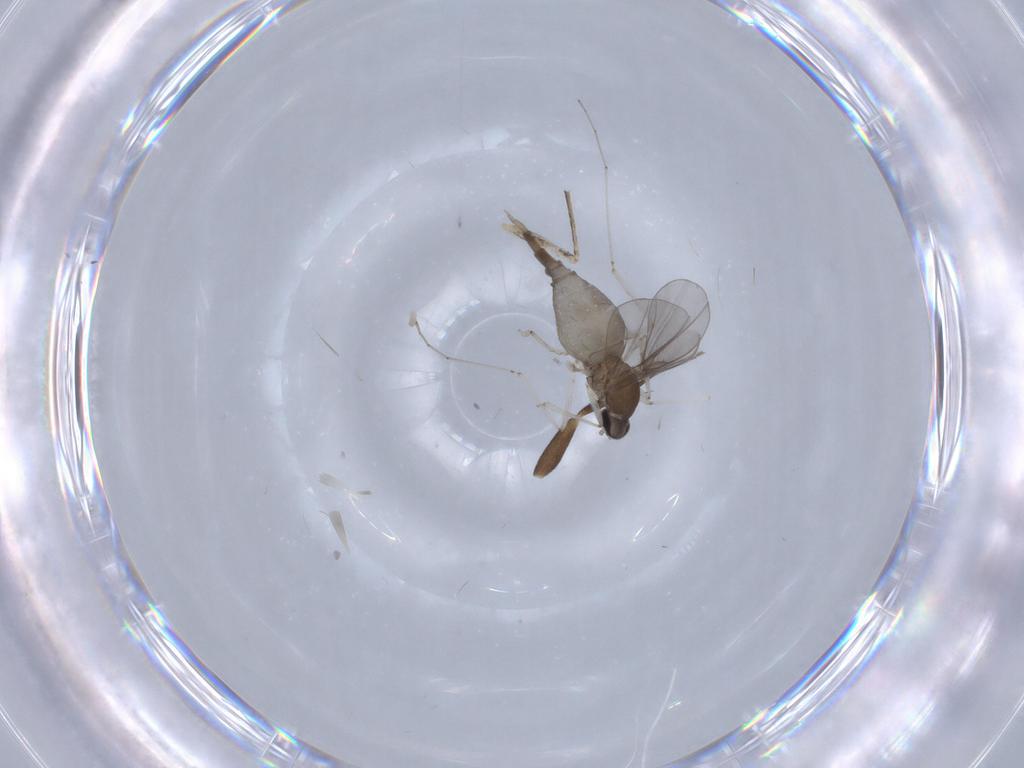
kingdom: Animalia
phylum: Arthropoda
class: Insecta
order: Diptera
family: Cecidomyiidae
